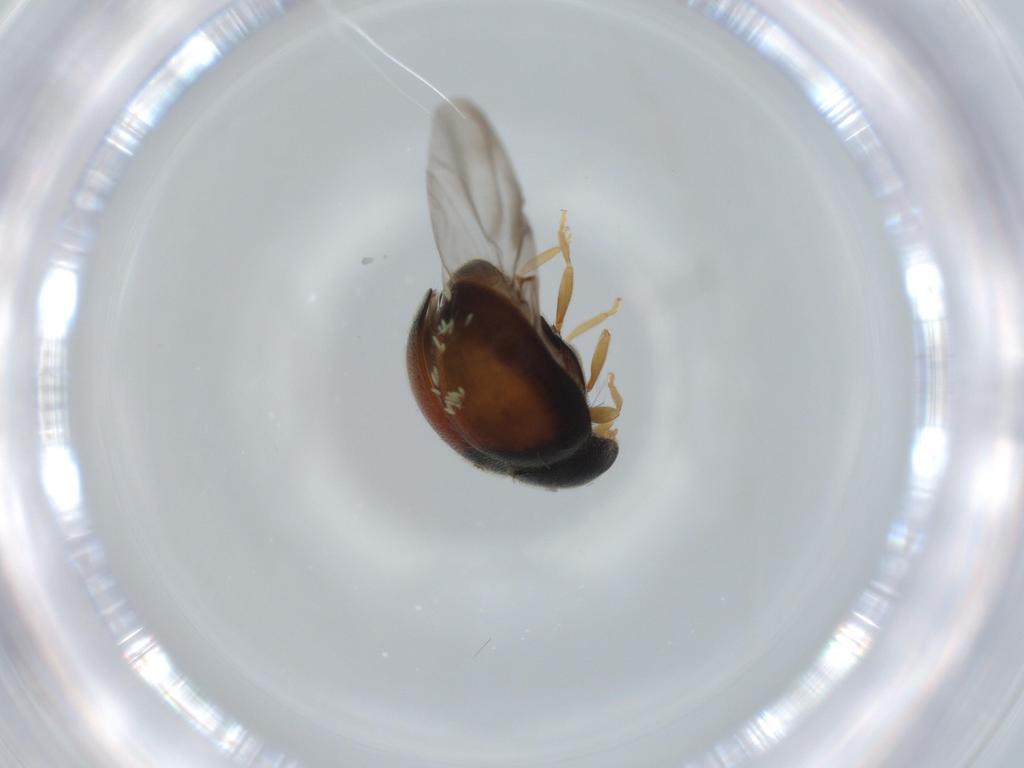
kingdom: Animalia
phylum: Arthropoda
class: Insecta
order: Coleoptera
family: Coccinellidae
